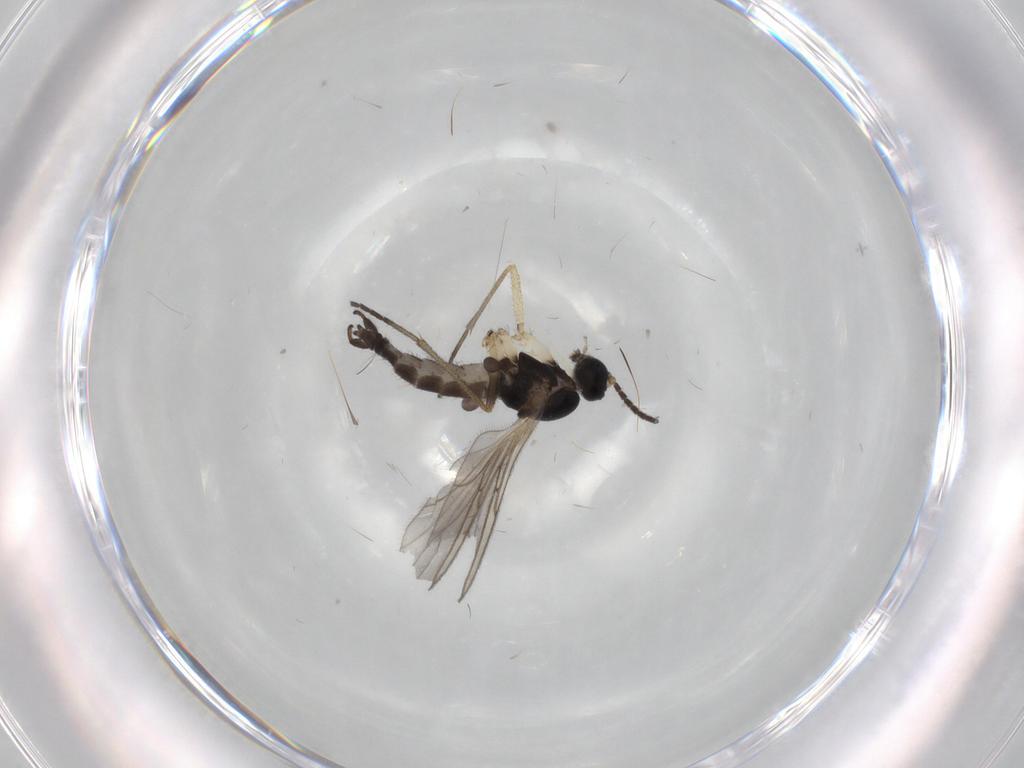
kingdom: Animalia
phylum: Arthropoda
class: Insecta
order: Diptera
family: Sciaridae
